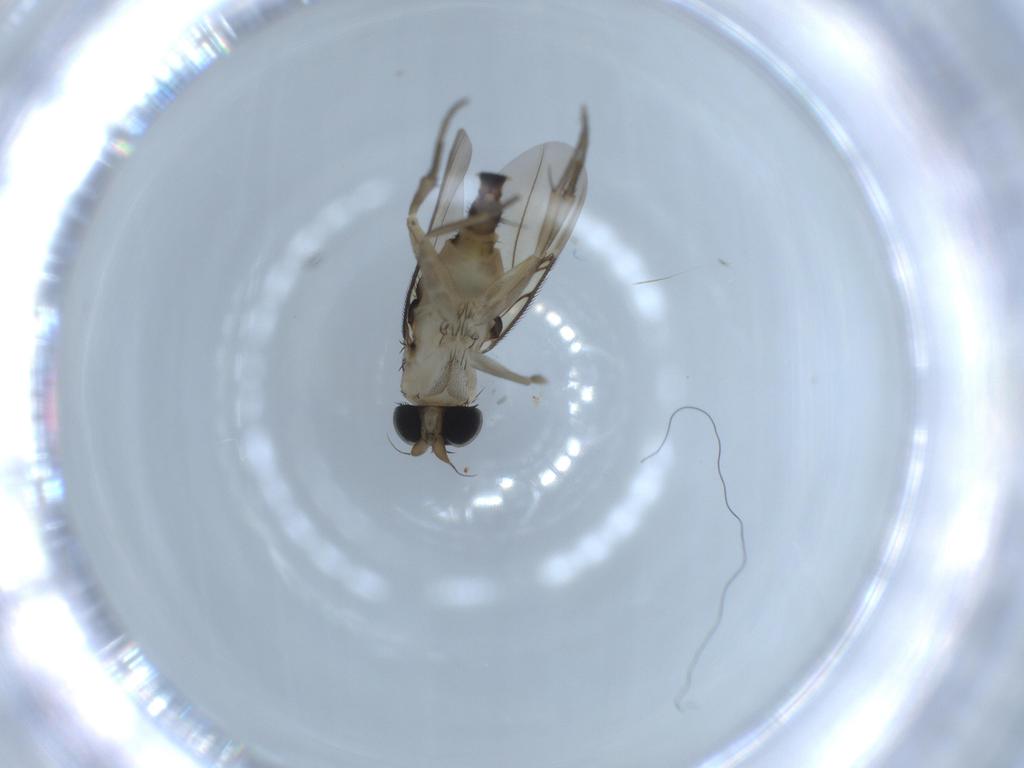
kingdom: Animalia
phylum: Arthropoda
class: Insecta
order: Diptera
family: Phoridae
